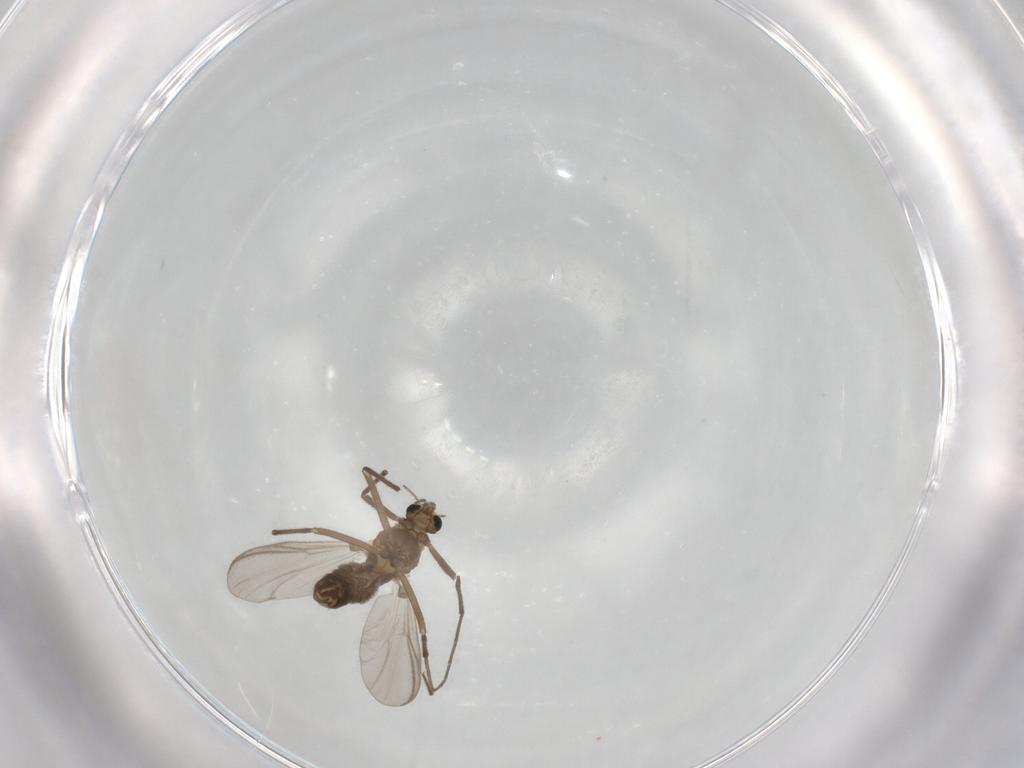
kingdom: Animalia
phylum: Arthropoda
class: Insecta
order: Diptera
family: Chironomidae
